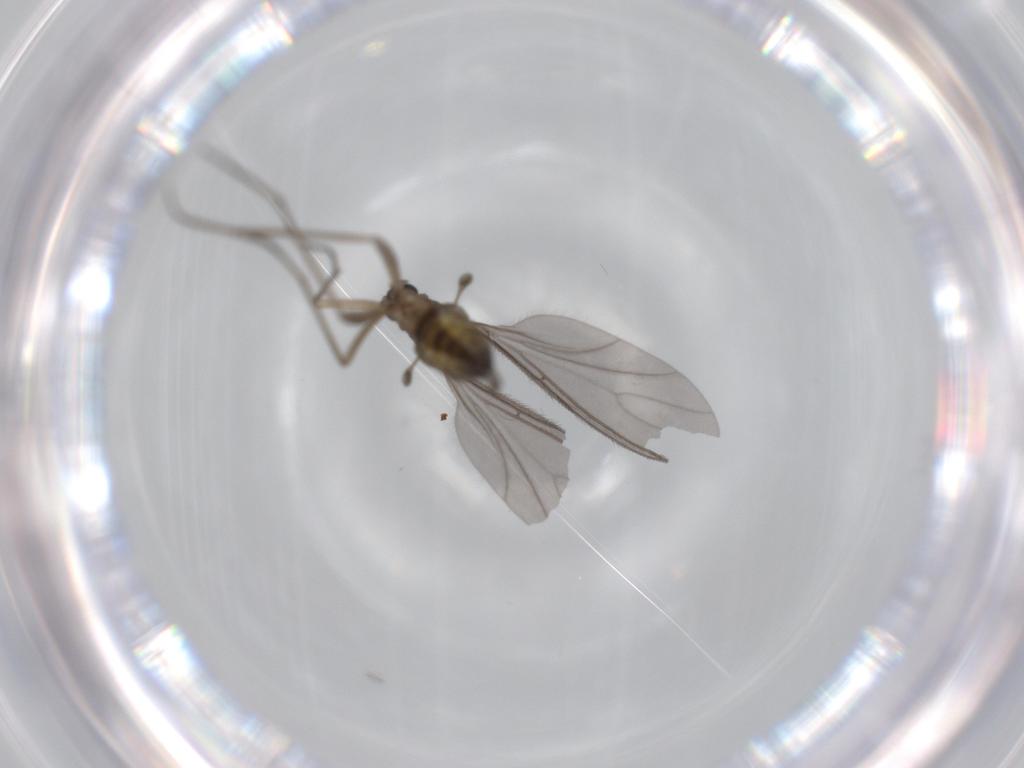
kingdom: Animalia
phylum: Arthropoda
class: Insecta
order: Diptera
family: Sciaridae
